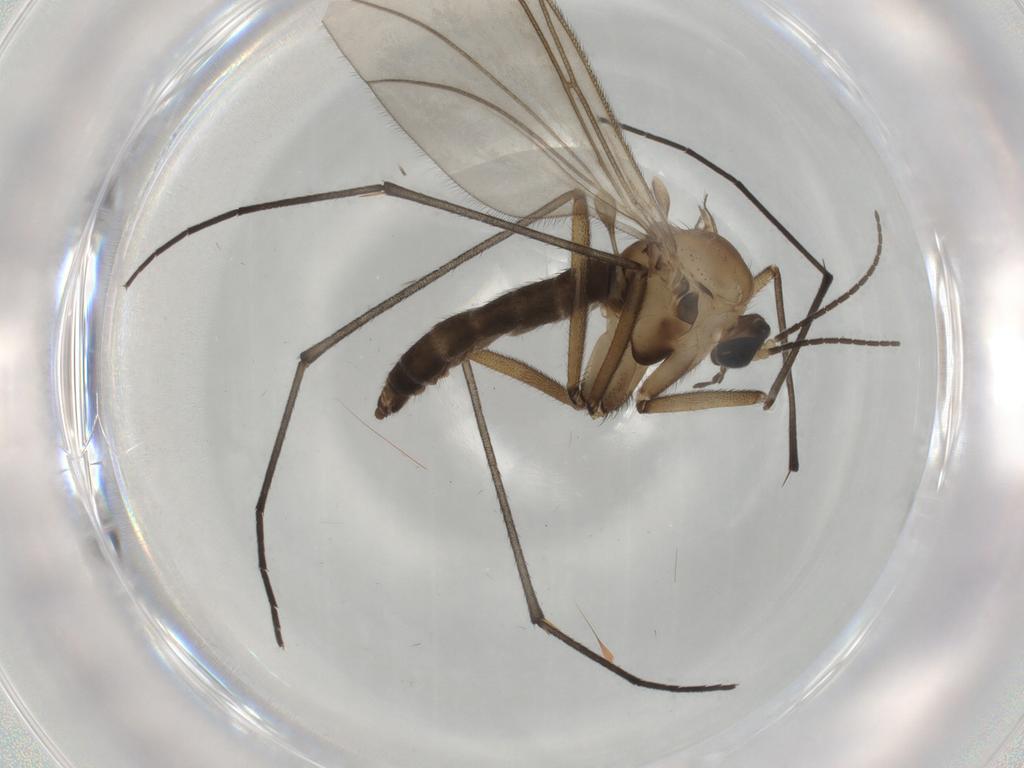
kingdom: Animalia
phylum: Arthropoda
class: Insecta
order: Diptera
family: Sciaridae
